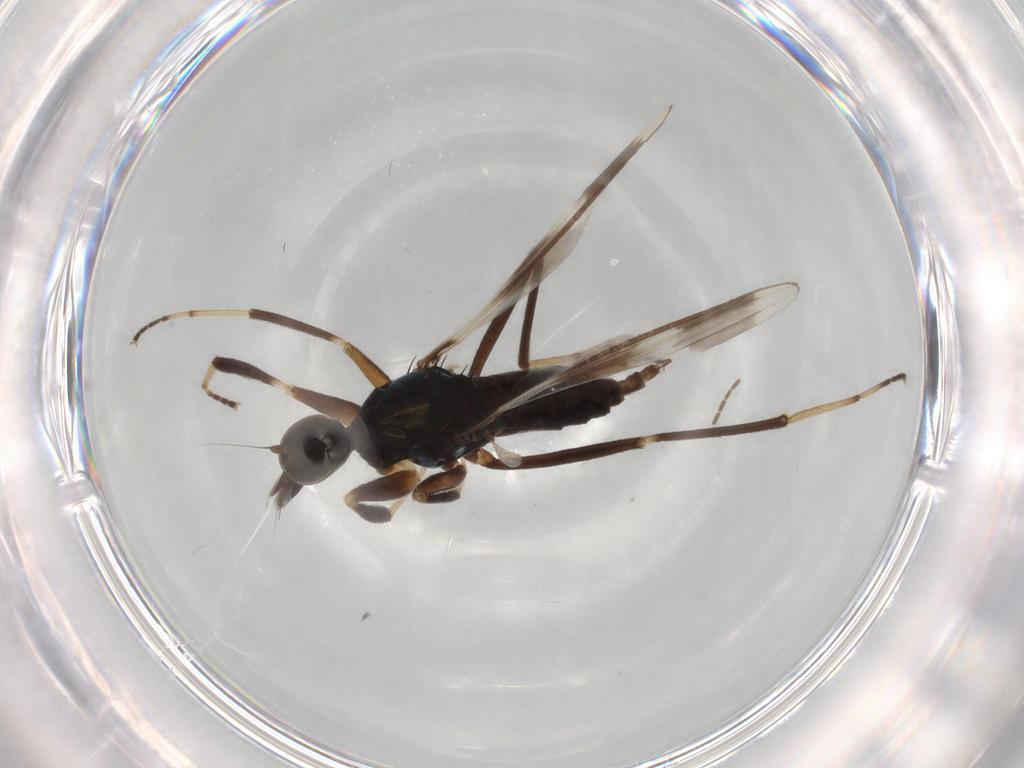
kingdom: Animalia
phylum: Arthropoda
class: Insecta
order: Diptera
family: Hybotidae
